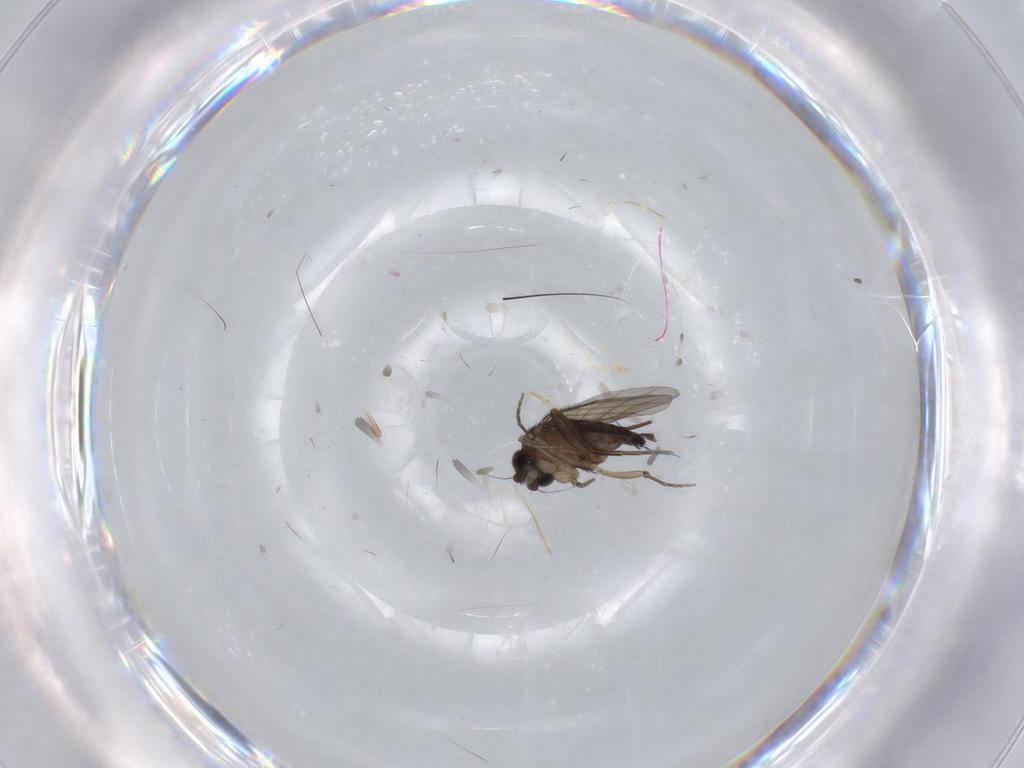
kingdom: Animalia
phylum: Arthropoda
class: Insecta
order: Diptera
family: Phoridae
